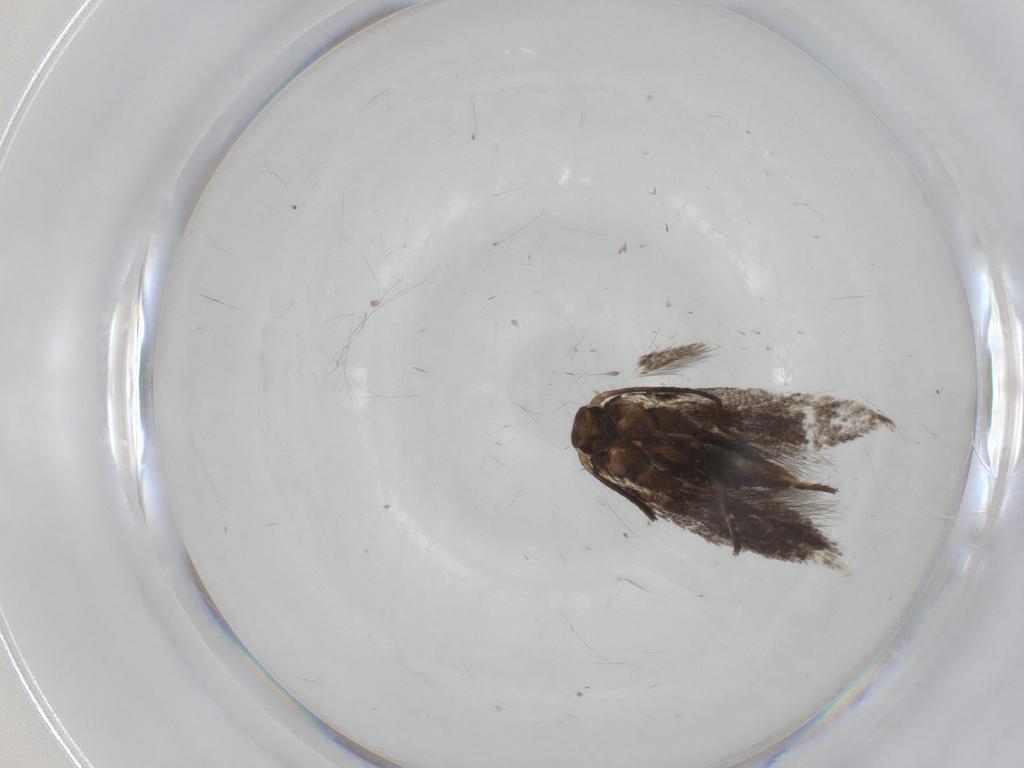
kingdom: Animalia
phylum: Arthropoda
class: Insecta
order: Lepidoptera
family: Elachistidae
